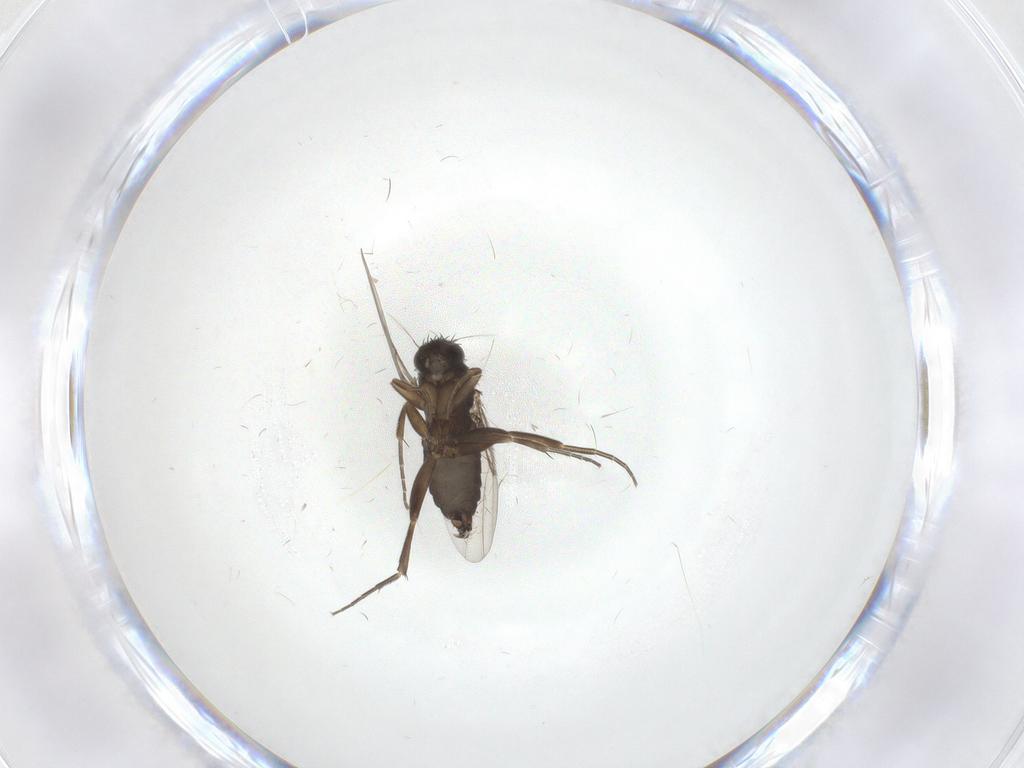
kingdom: Animalia
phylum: Arthropoda
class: Insecta
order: Diptera
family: Phoridae
